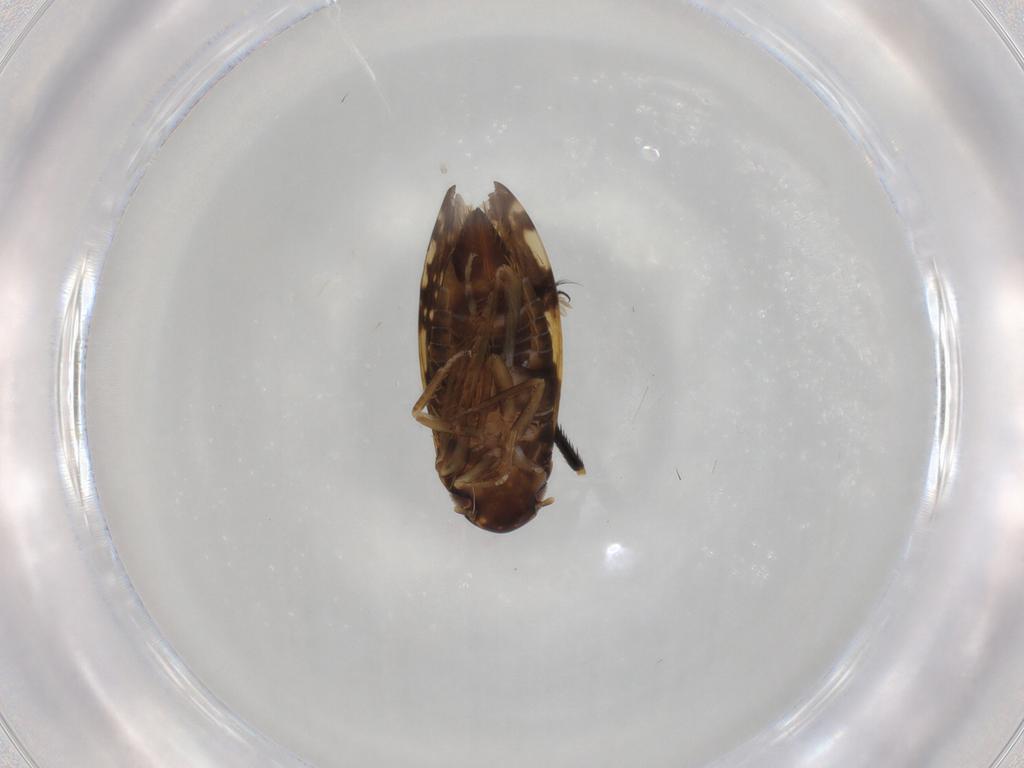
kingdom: Animalia
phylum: Arthropoda
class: Insecta
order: Hemiptera
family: Cicadellidae
